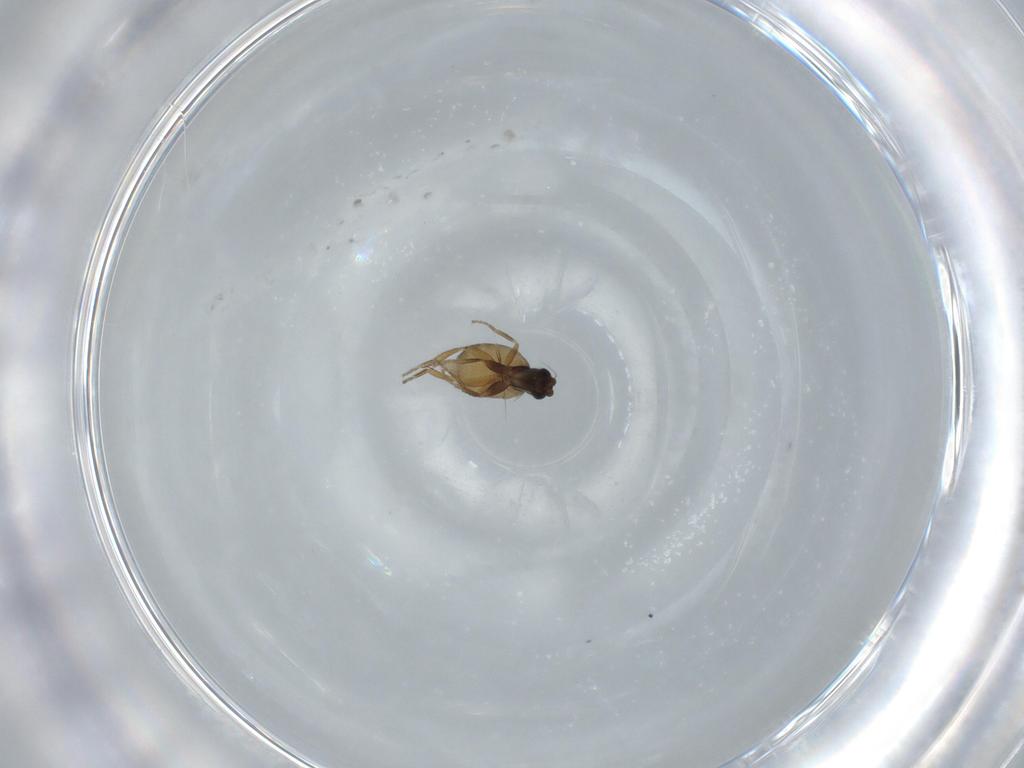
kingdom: Animalia
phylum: Arthropoda
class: Insecta
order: Diptera
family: Phoridae
